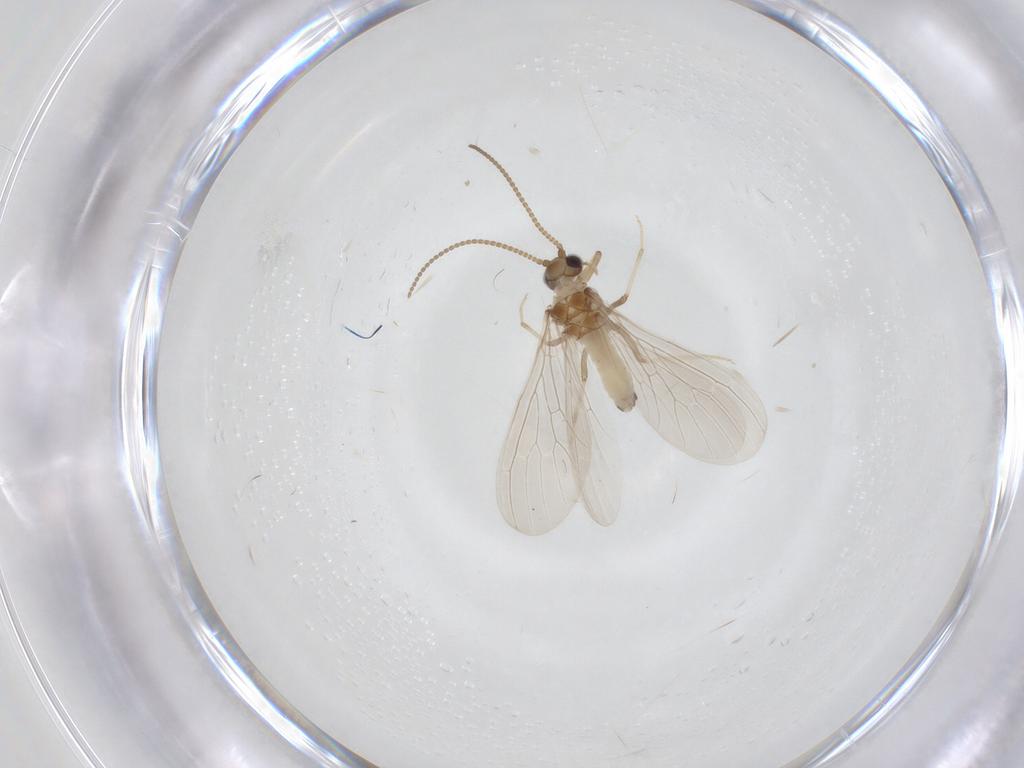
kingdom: Animalia
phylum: Arthropoda
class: Insecta
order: Neuroptera
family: Coniopterygidae
